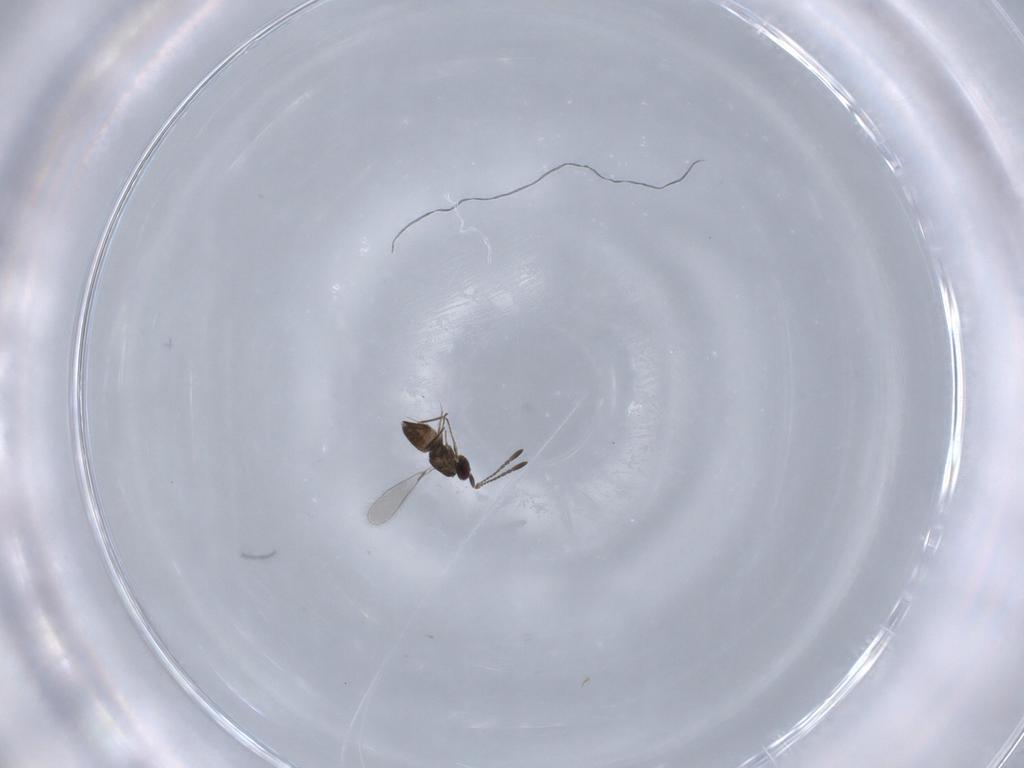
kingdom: Animalia
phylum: Arthropoda
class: Insecta
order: Hymenoptera
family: Mymaridae
